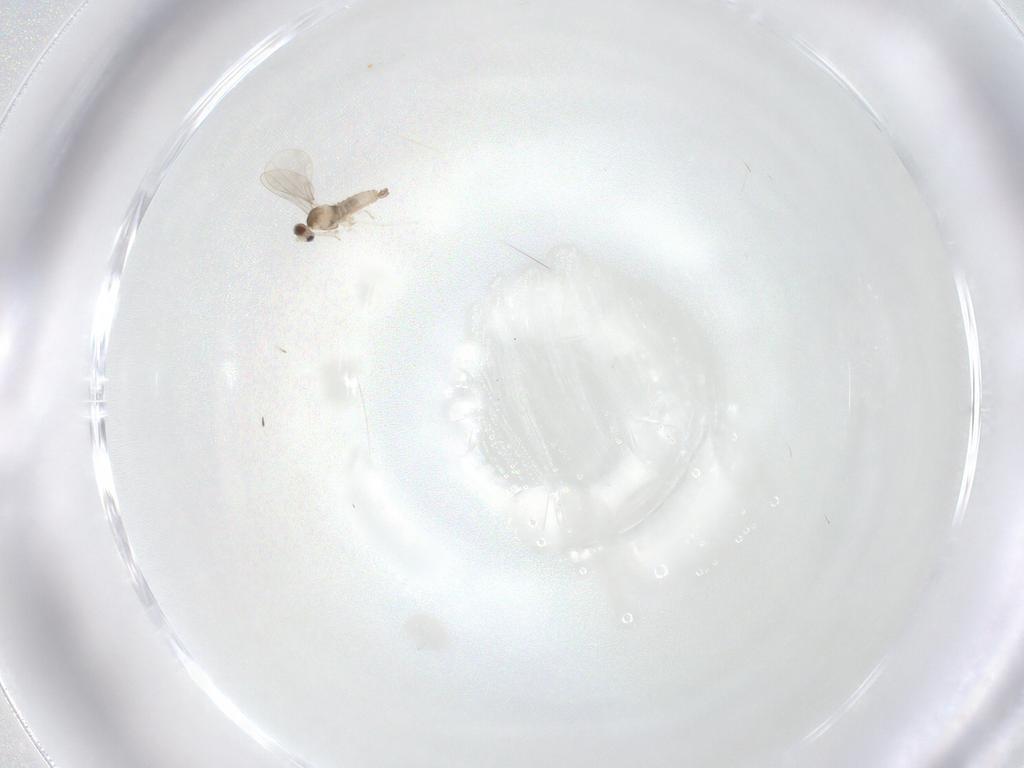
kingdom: Animalia
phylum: Arthropoda
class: Insecta
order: Diptera
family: Cecidomyiidae
